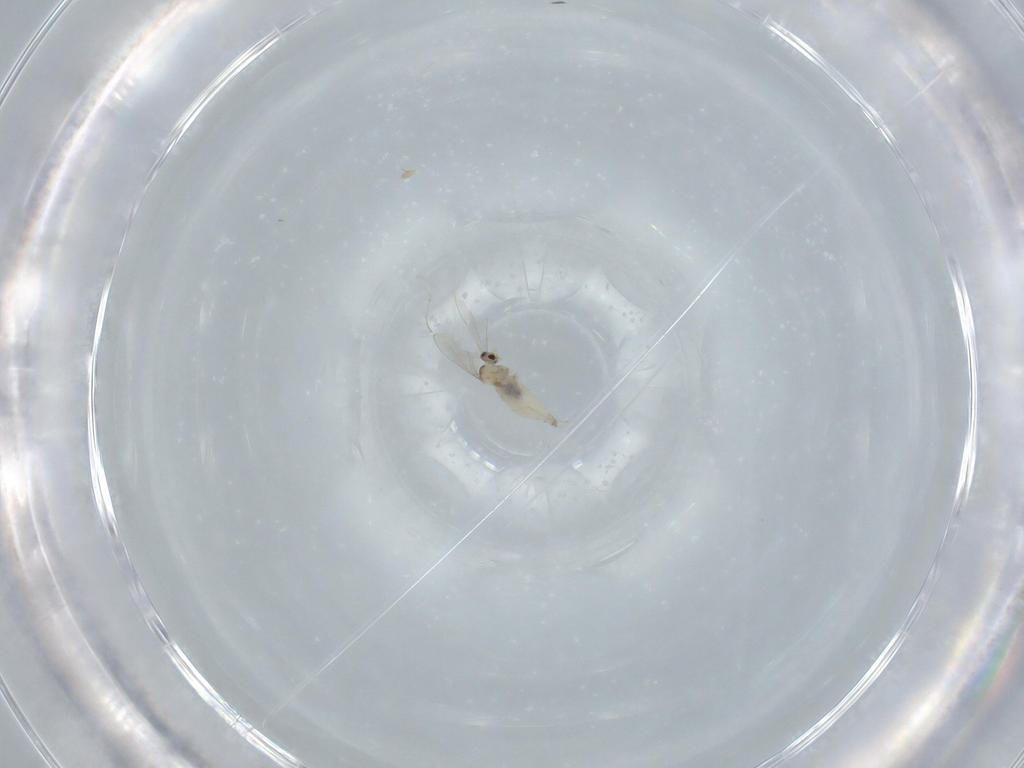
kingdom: Animalia
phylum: Arthropoda
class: Insecta
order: Diptera
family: Cecidomyiidae
